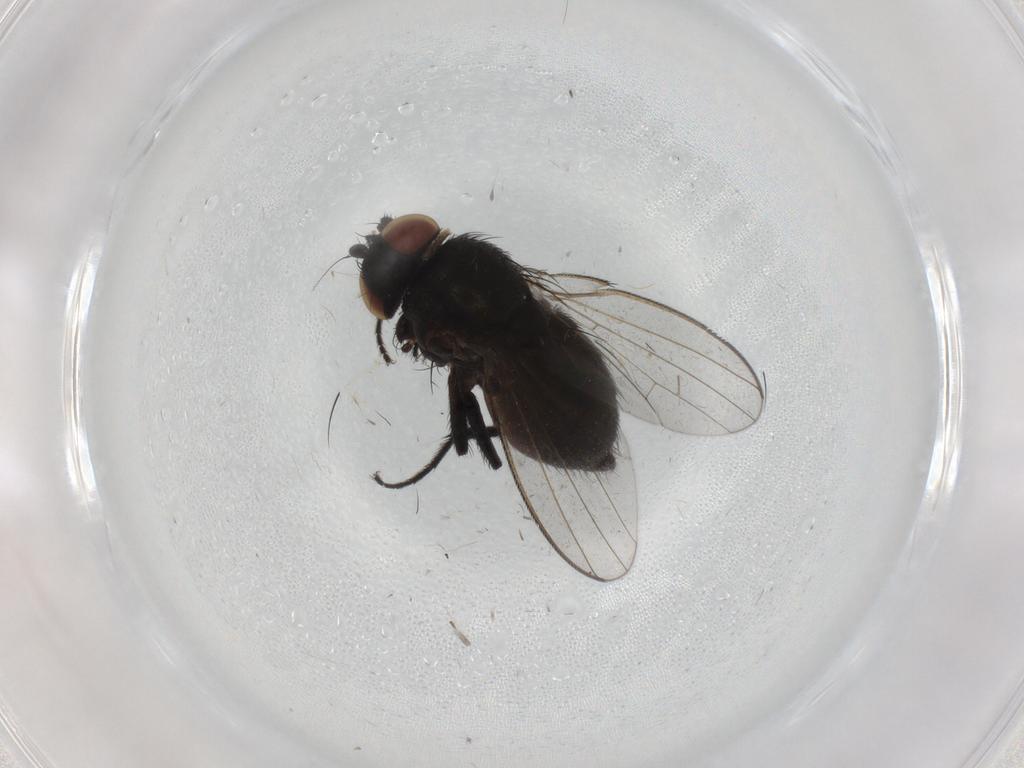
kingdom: Animalia
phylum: Arthropoda
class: Insecta
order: Diptera
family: Milichiidae
